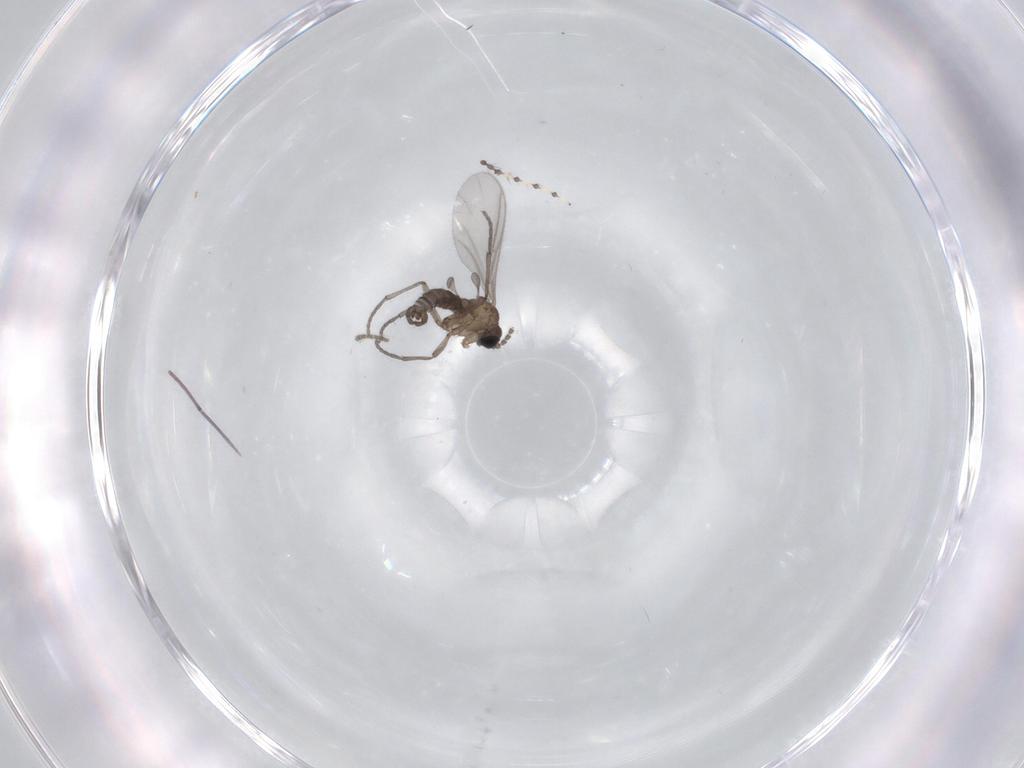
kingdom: Animalia
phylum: Arthropoda
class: Insecta
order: Diptera
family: Sciaridae
